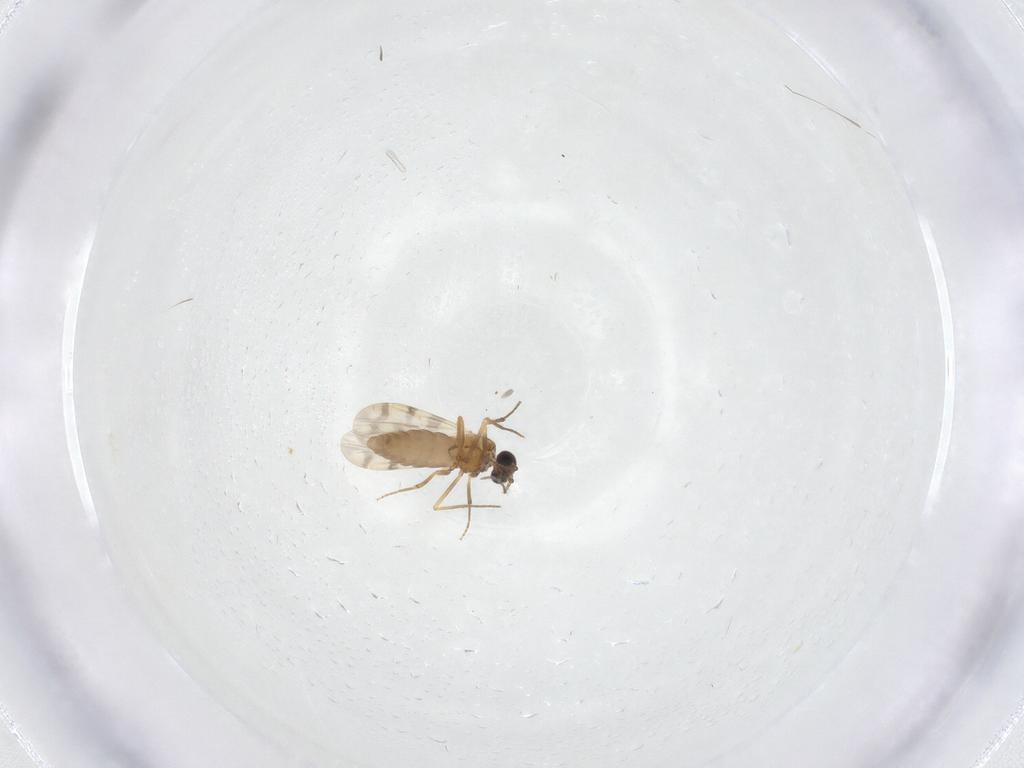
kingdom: Animalia
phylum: Arthropoda
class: Insecta
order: Diptera
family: Ceratopogonidae
